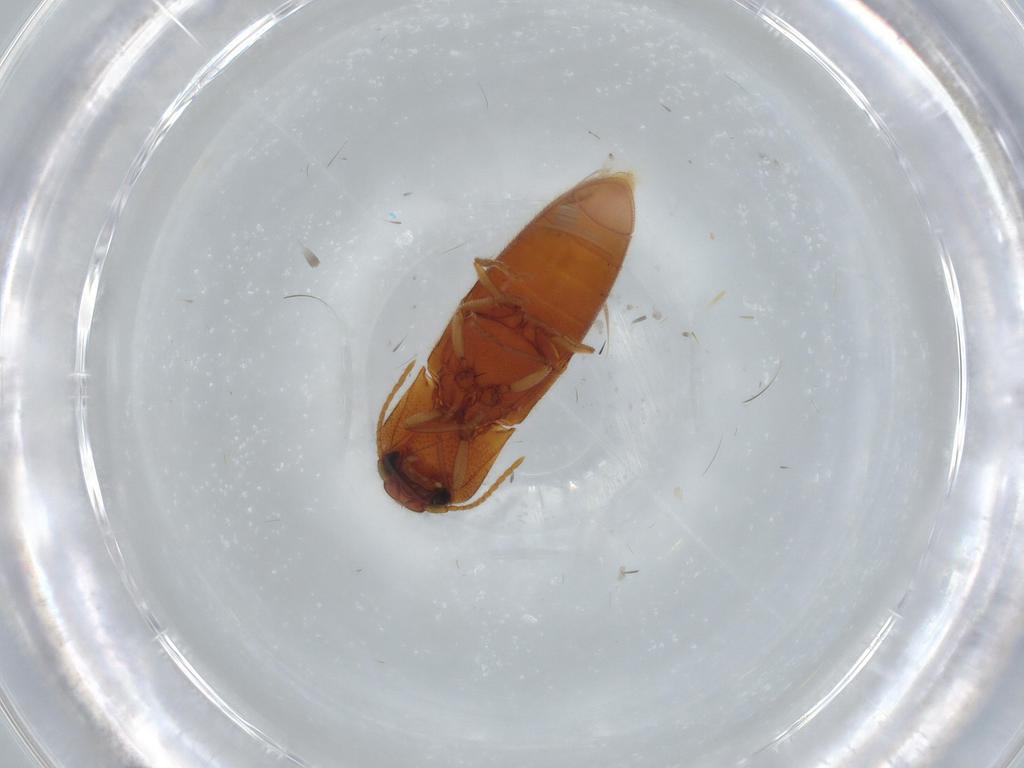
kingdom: Animalia
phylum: Arthropoda
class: Insecta
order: Coleoptera
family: Elateridae
